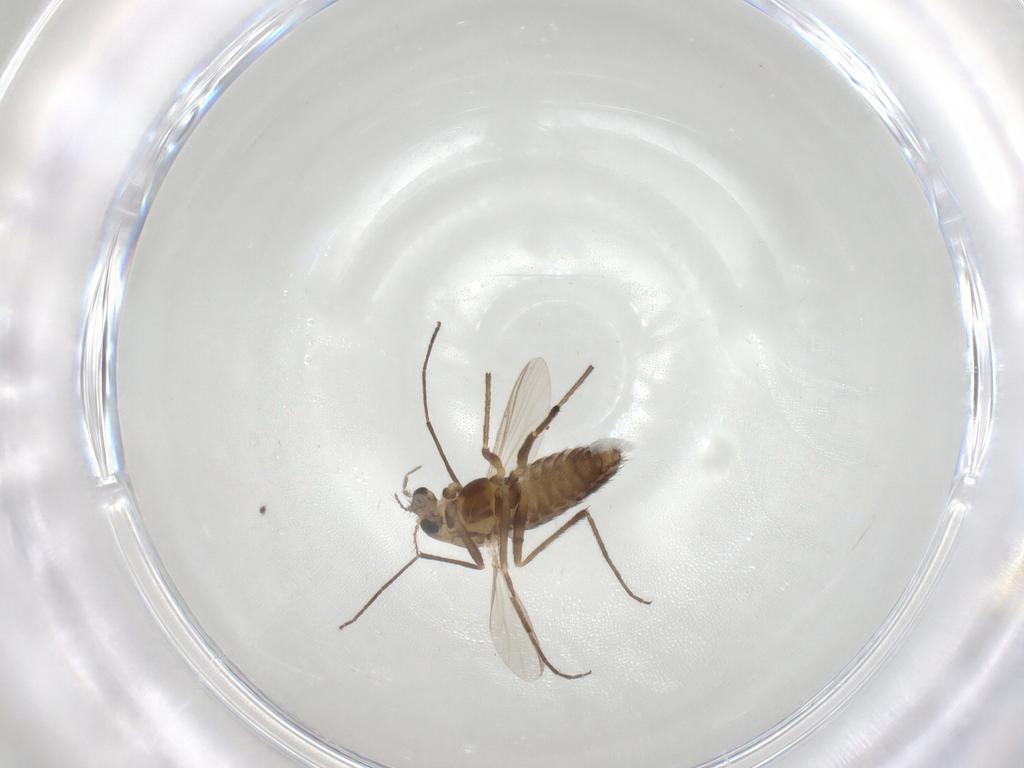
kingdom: Animalia
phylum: Arthropoda
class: Insecta
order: Diptera
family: Chironomidae
